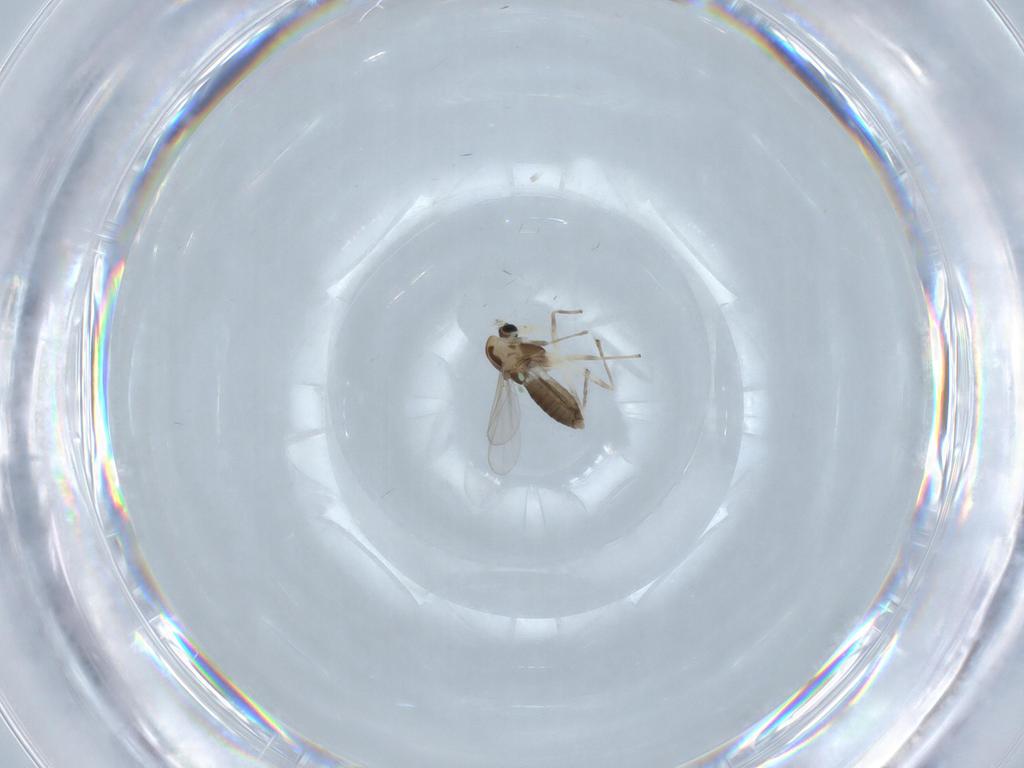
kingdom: Animalia
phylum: Arthropoda
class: Insecta
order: Diptera
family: Chironomidae
